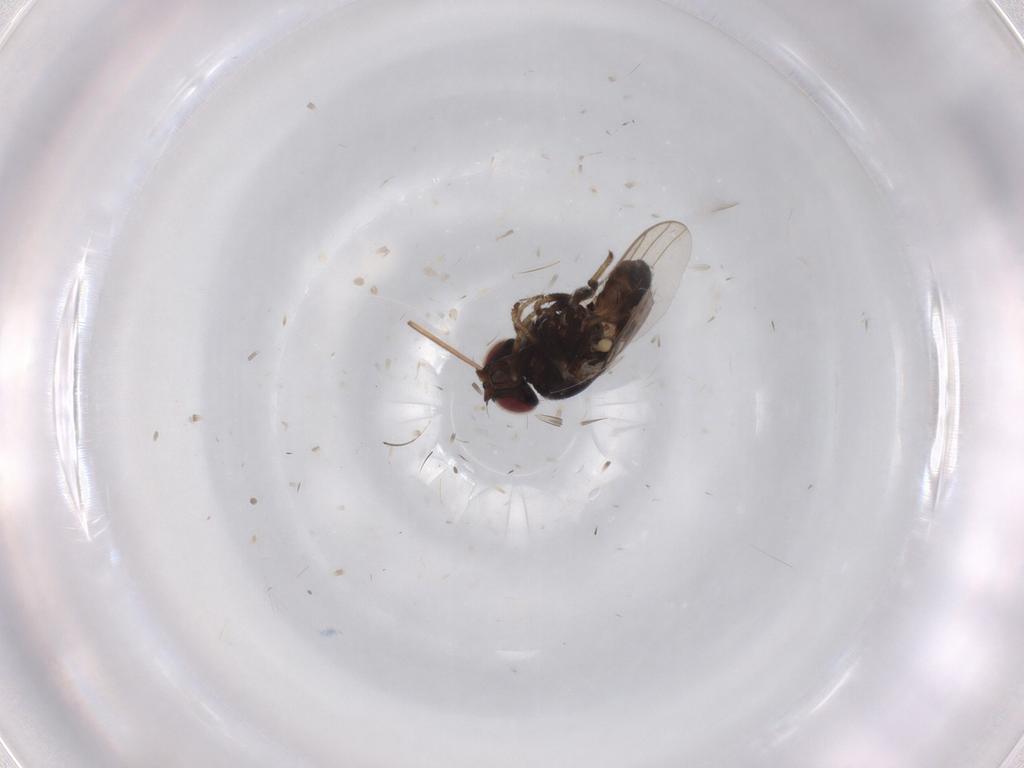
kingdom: Animalia
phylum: Arthropoda
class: Insecta
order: Diptera
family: Chloropidae
